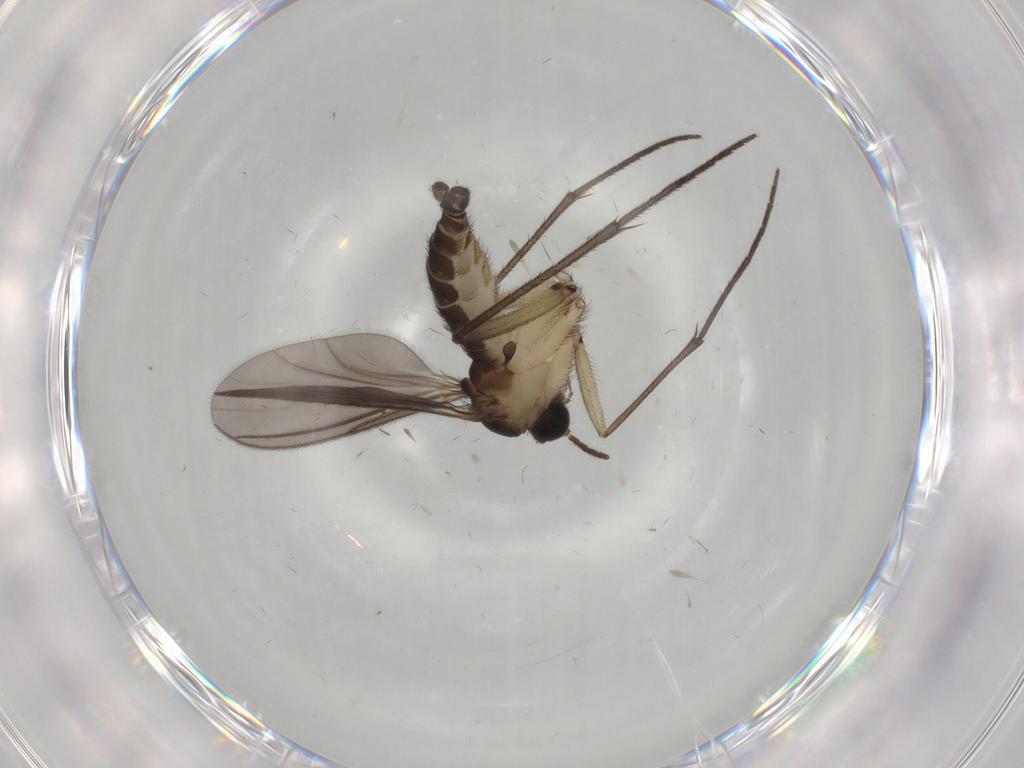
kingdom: Animalia
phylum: Arthropoda
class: Insecta
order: Diptera
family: Sciaridae
